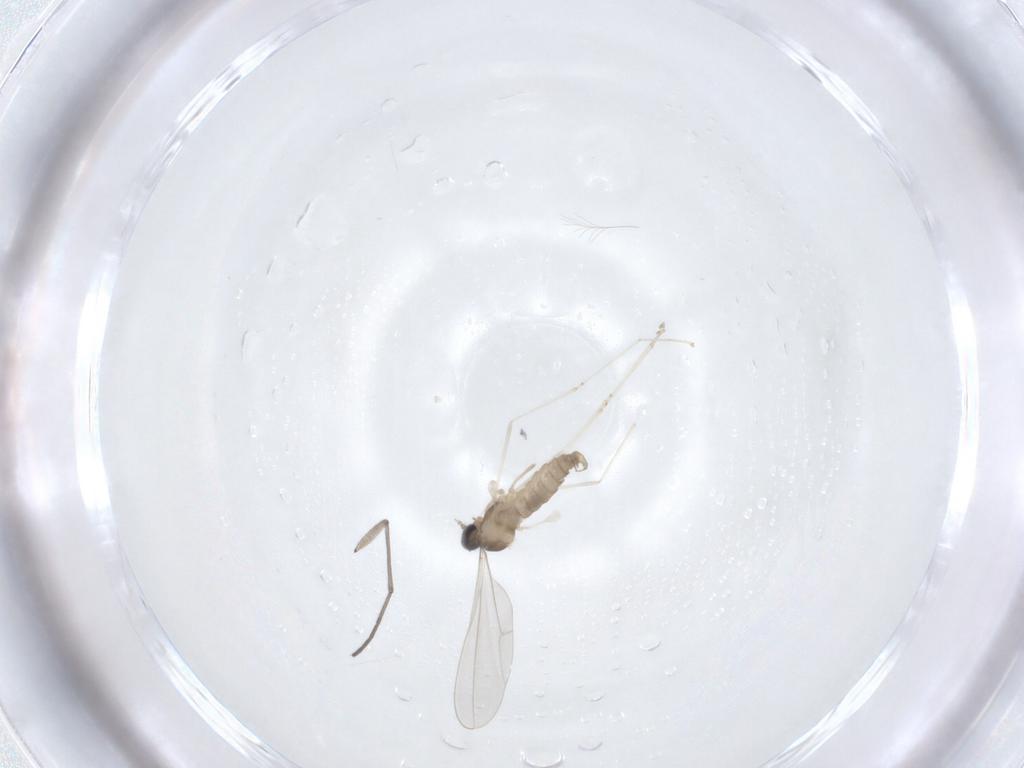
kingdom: Animalia
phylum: Arthropoda
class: Insecta
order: Diptera
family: Cecidomyiidae
